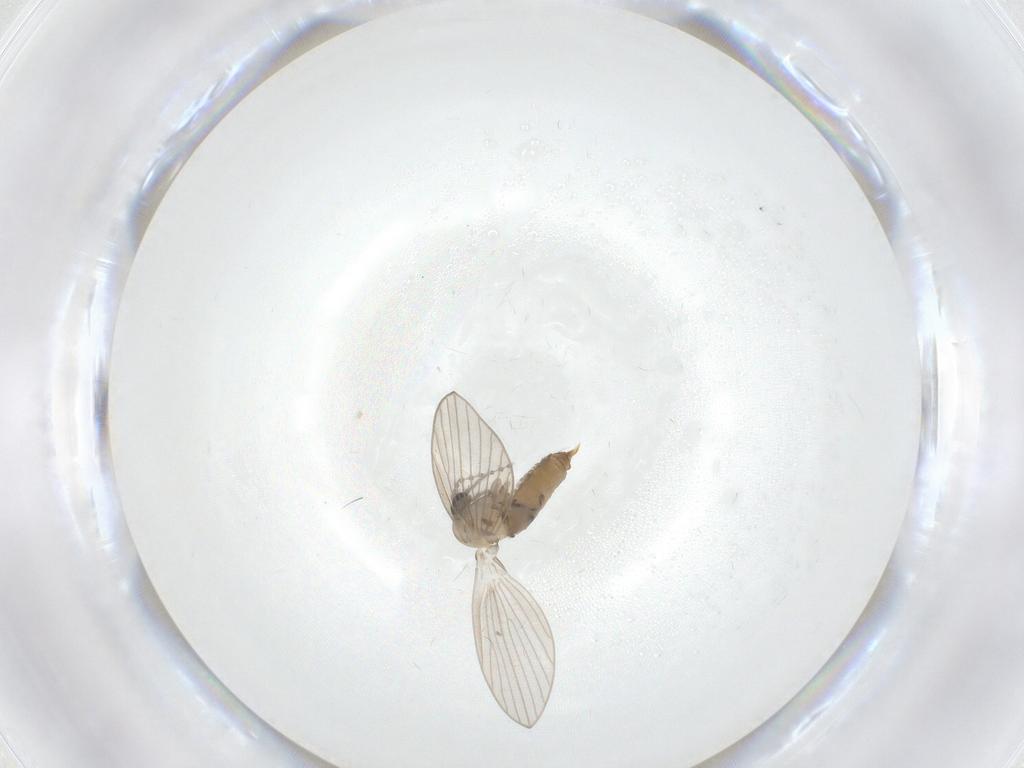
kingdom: Animalia
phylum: Arthropoda
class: Insecta
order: Diptera
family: Psychodidae
